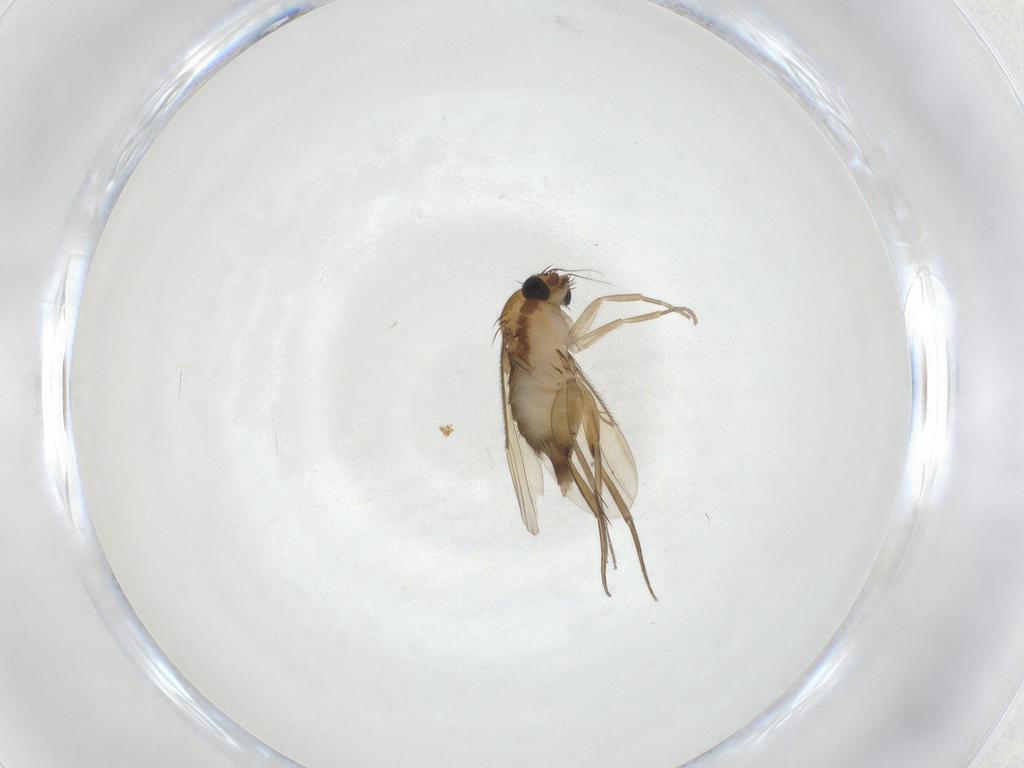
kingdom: Animalia
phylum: Arthropoda
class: Insecta
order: Diptera
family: Phoridae
